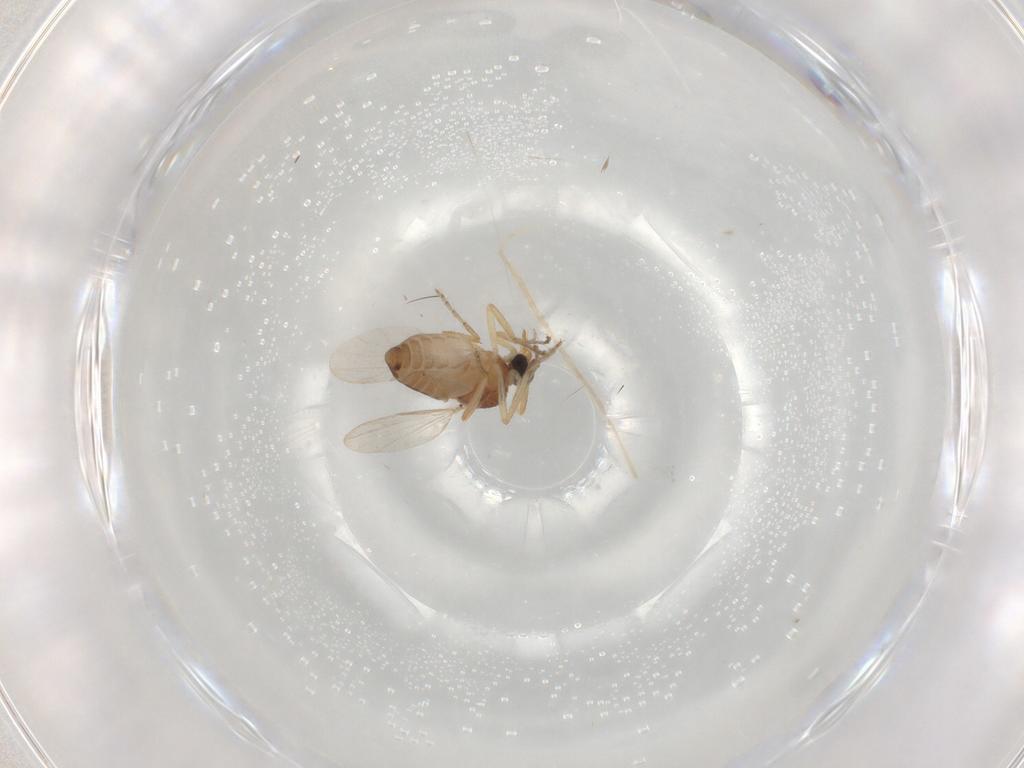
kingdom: Animalia
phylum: Arthropoda
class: Insecta
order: Diptera
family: Ceratopogonidae
